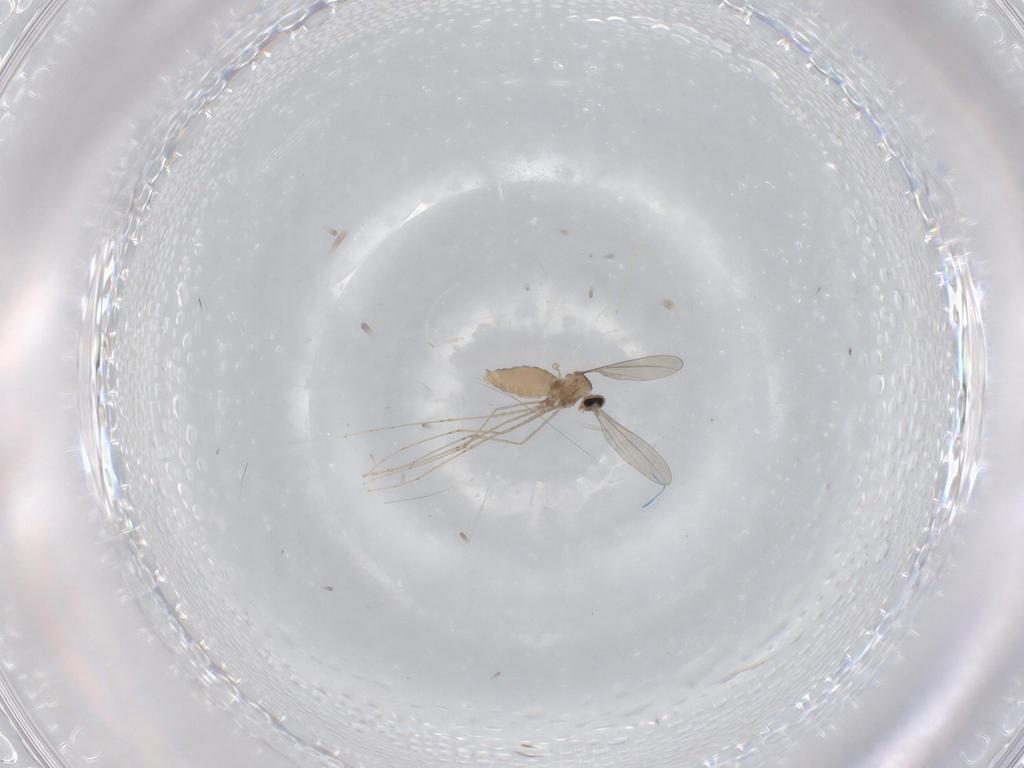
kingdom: Animalia
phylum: Arthropoda
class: Insecta
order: Diptera
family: Cecidomyiidae
